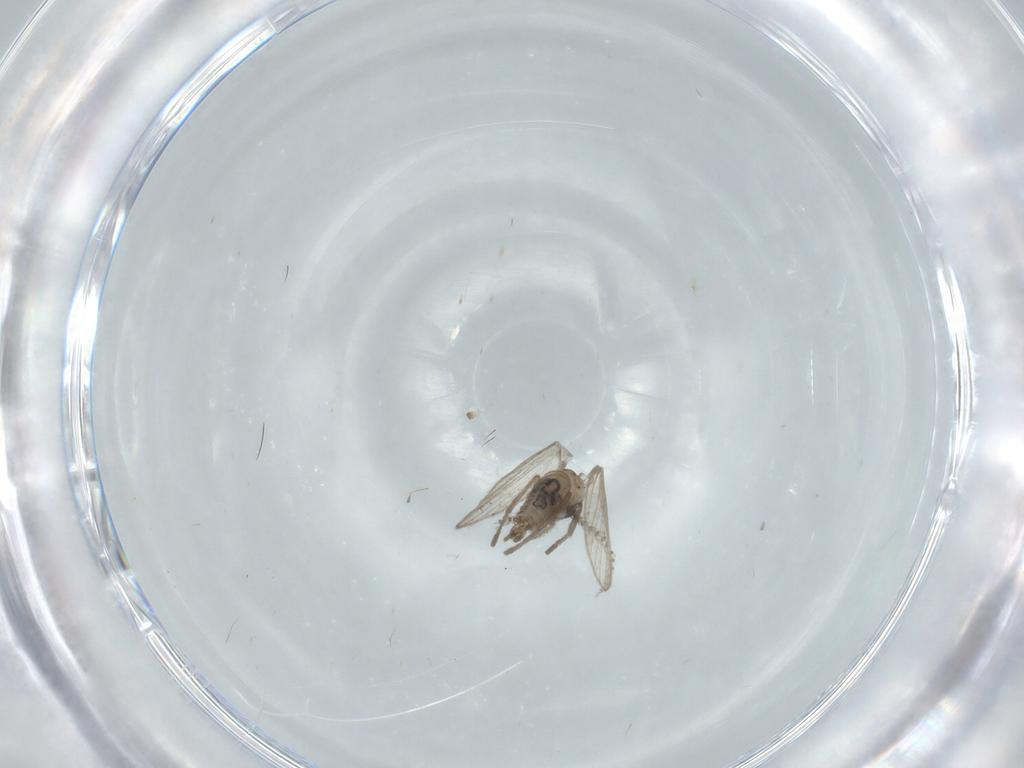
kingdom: Animalia
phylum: Arthropoda
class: Insecta
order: Diptera
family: Psychodidae
